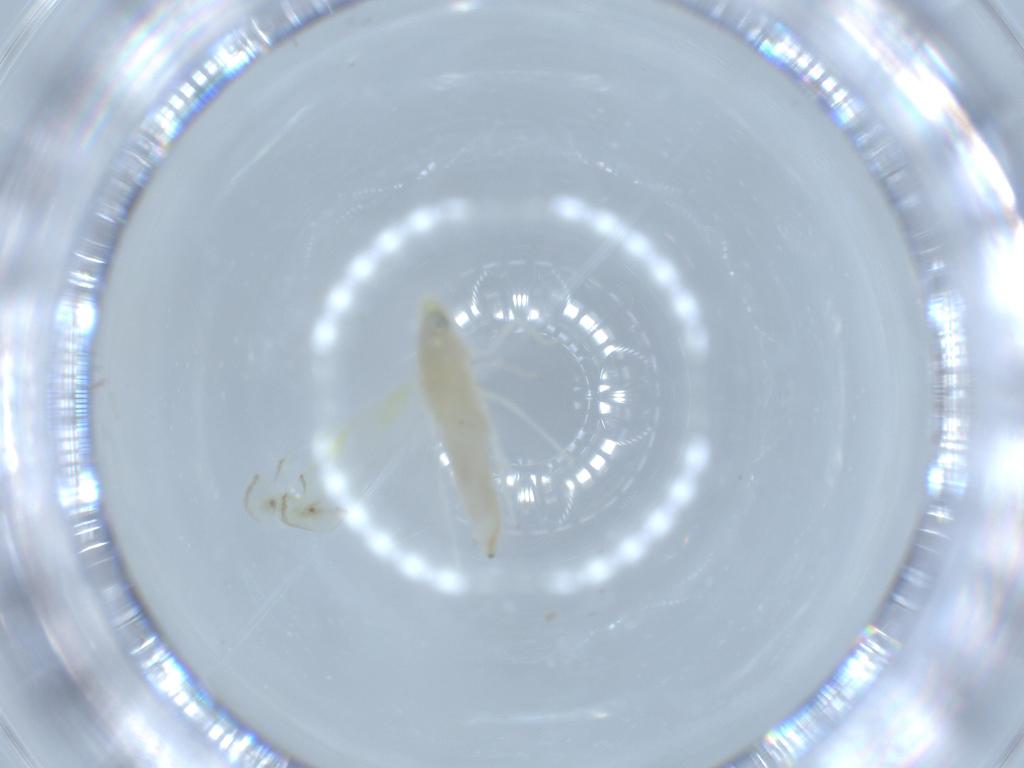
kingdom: Animalia
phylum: Arthropoda
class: Insecta
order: Hemiptera
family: Cicadellidae
